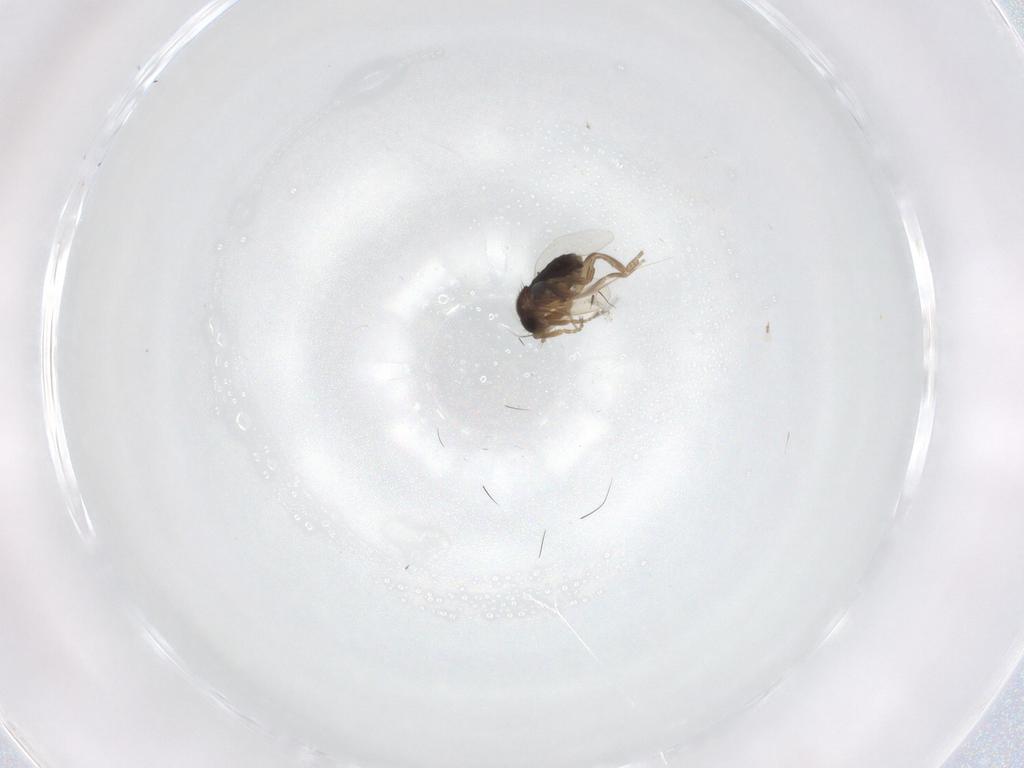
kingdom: Animalia
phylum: Arthropoda
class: Insecta
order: Diptera
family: Phoridae
